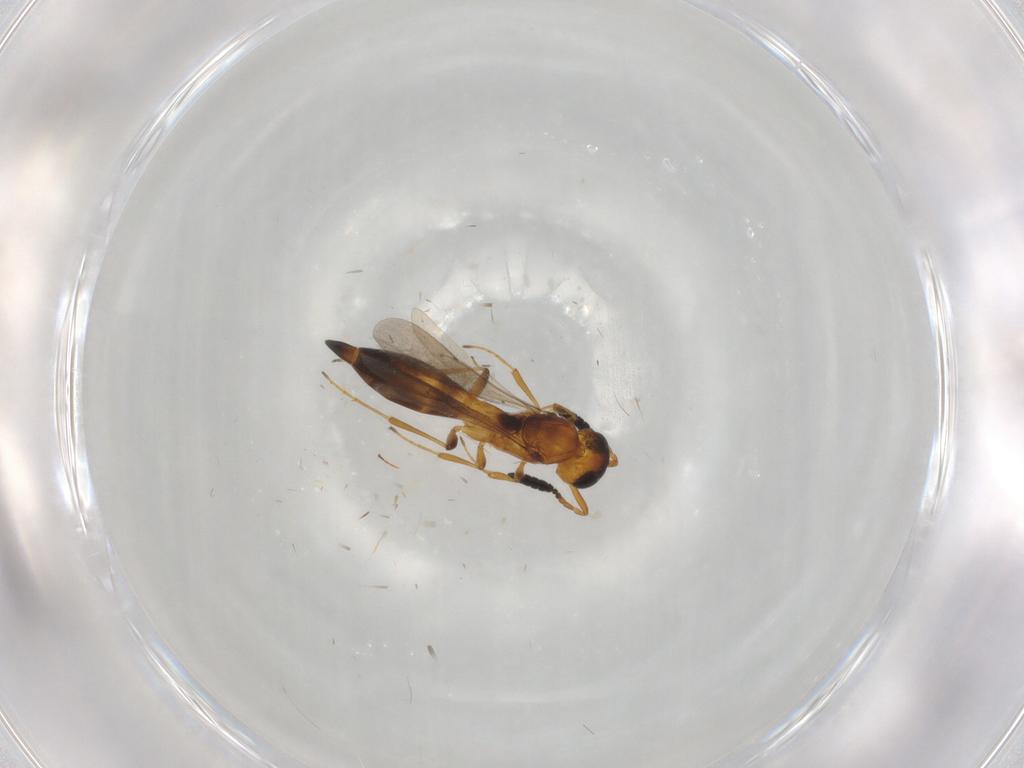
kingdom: Animalia
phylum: Arthropoda
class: Insecta
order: Hymenoptera
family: Scelionidae
